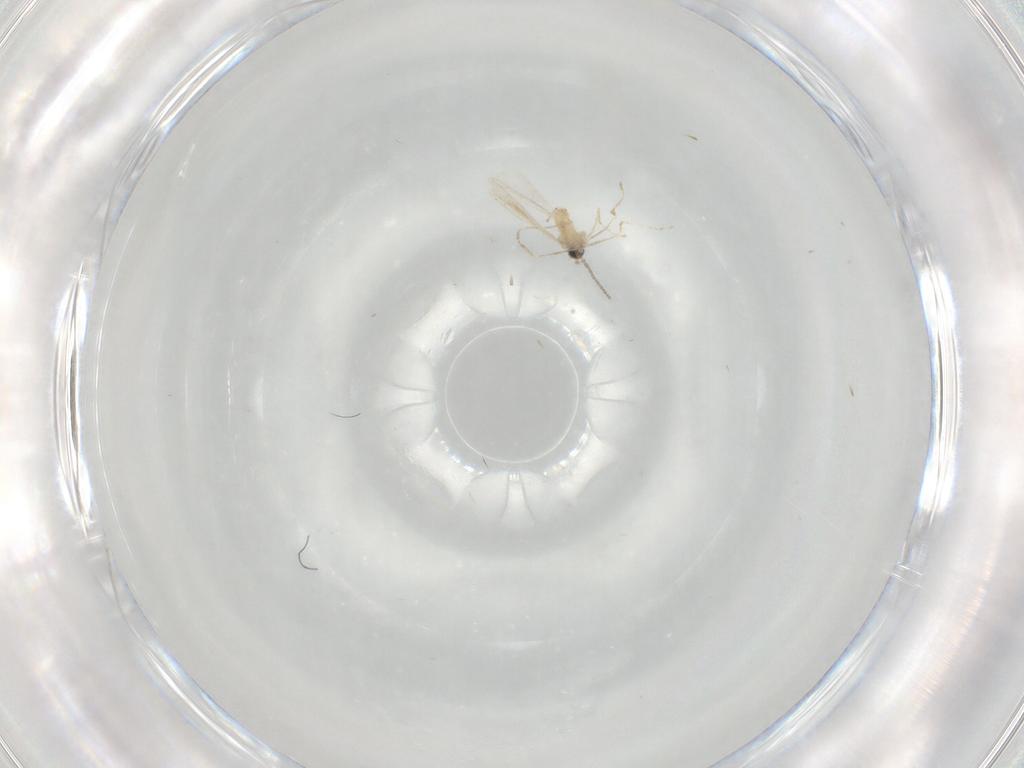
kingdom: Animalia
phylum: Arthropoda
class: Insecta
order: Diptera
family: Cecidomyiidae
